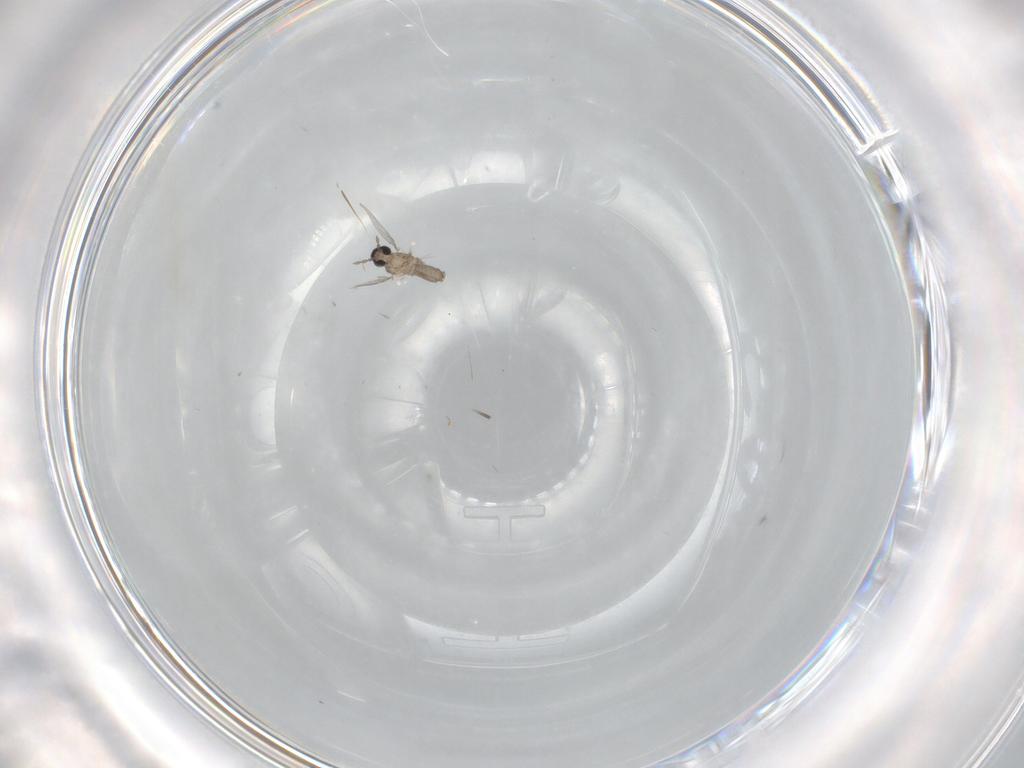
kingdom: Animalia
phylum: Arthropoda
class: Insecta
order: Diptera
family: Cecidomyiidae
